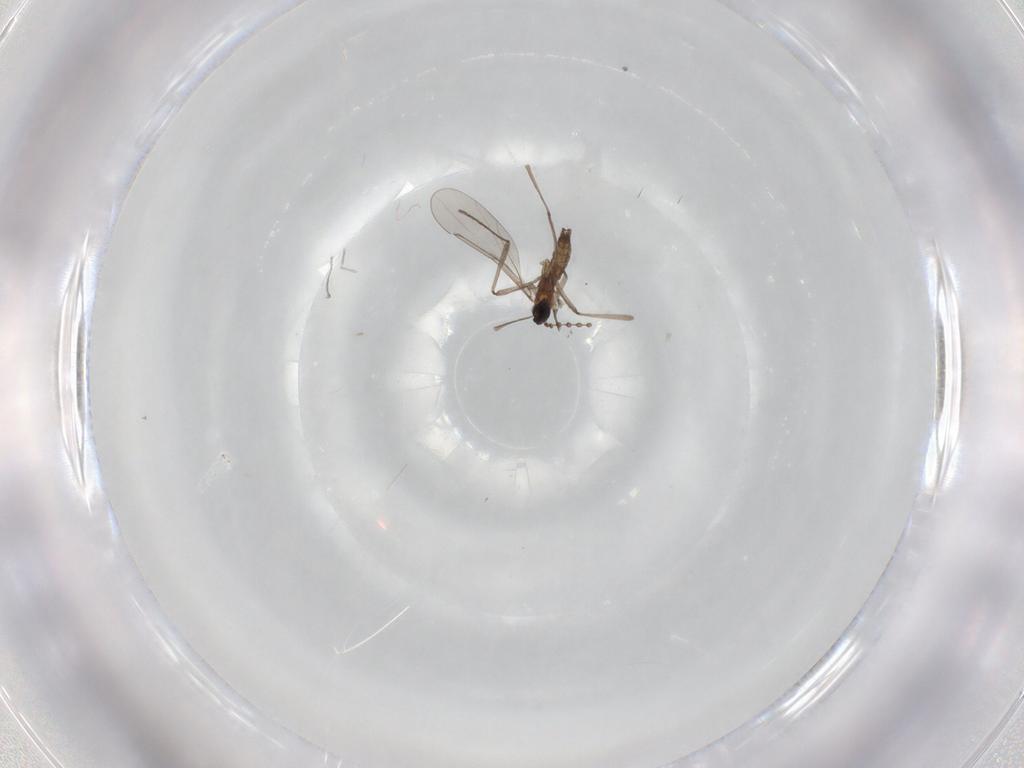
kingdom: Animalia
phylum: Arthropoda
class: Insecta
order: Diptera
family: Cecidomyiidae
